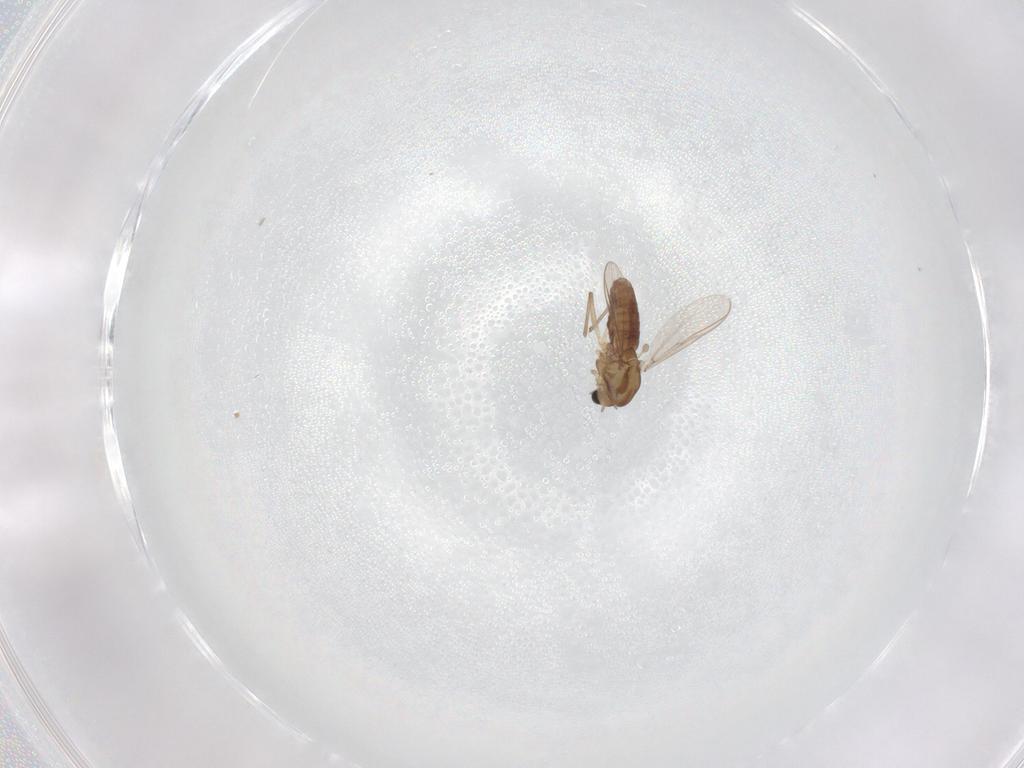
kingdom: Animalia
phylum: Arthropoda
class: Insecta
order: Diptera
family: Chironomidae
